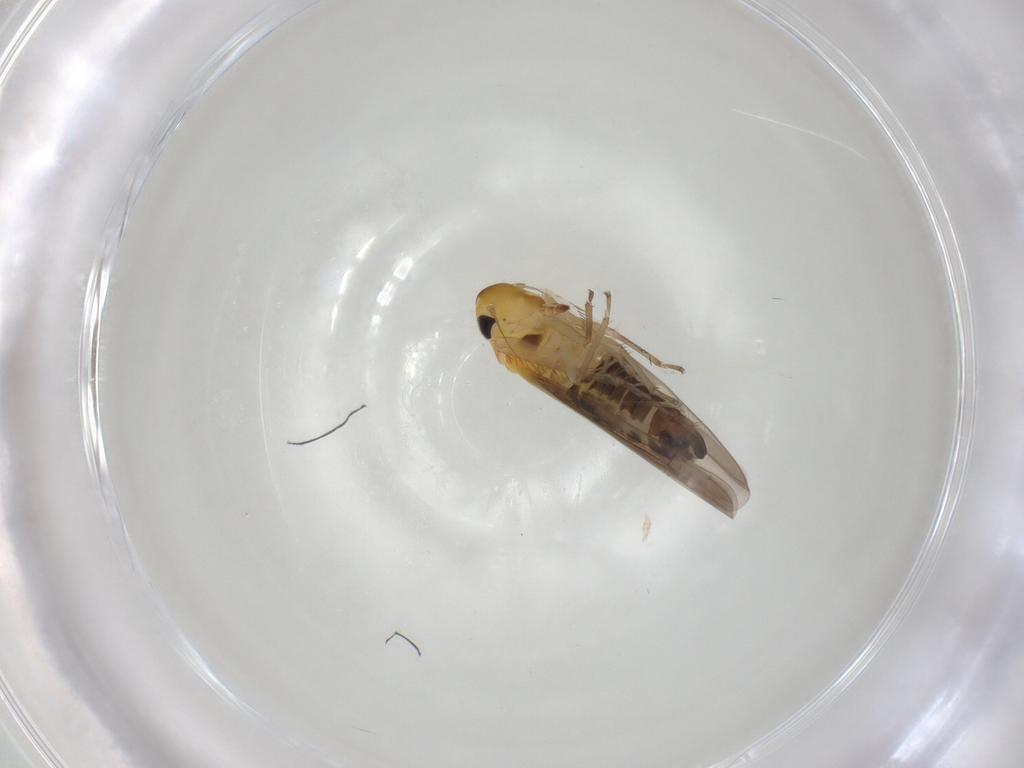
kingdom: Animalia
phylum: Arthropoda
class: Insecta
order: Hemiptera
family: Cicadellidae
